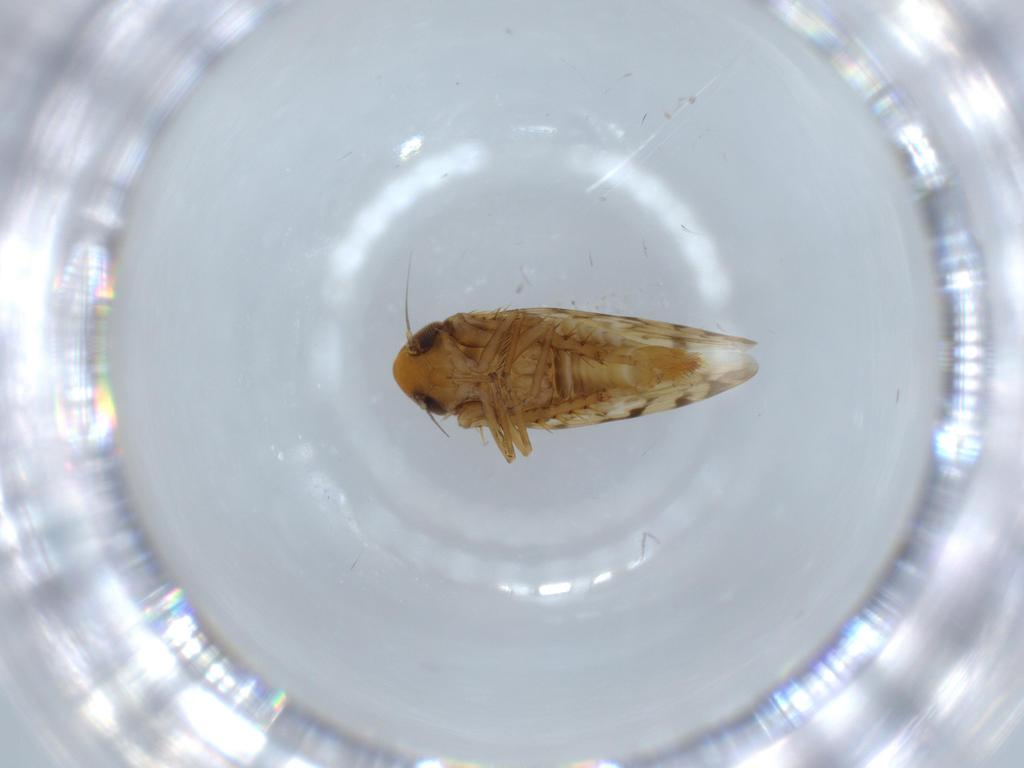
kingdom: Animalia
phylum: Arthropoda
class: Insecta
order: Hemiptera
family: Cicadellidae
